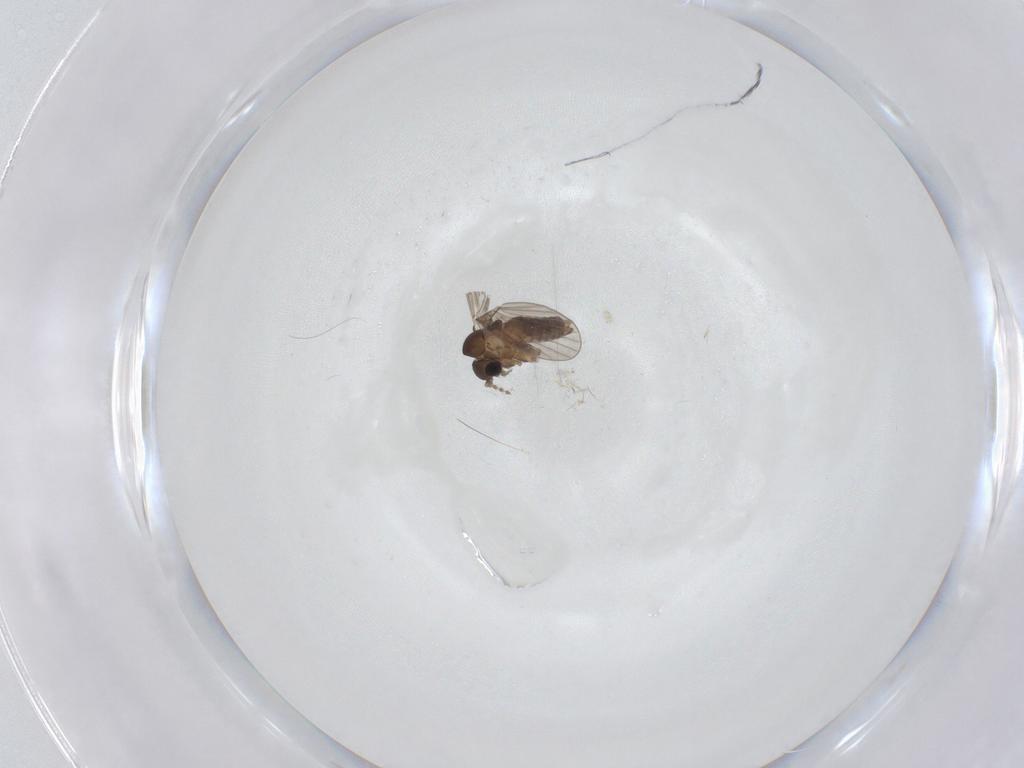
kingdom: Animalia
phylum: Arthropoda
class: Insecta
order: Diptera
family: Psychodidae
